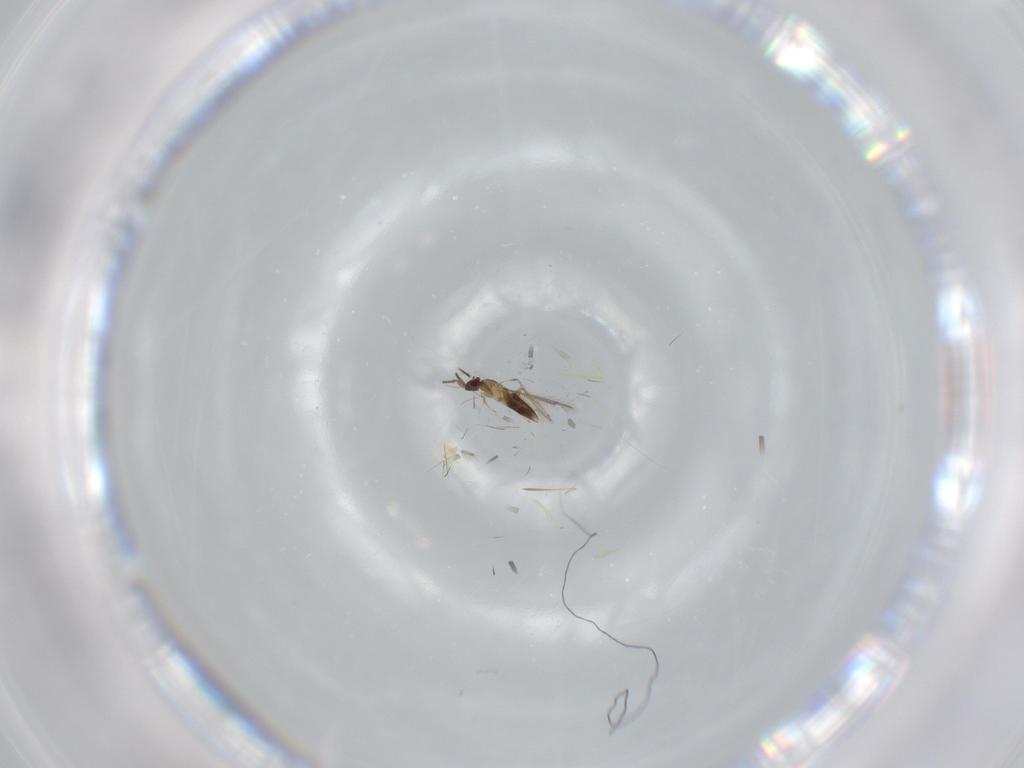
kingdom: Animalia
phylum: Arthropoda
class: Insecta
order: Hymenoptera
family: Mymaridae
